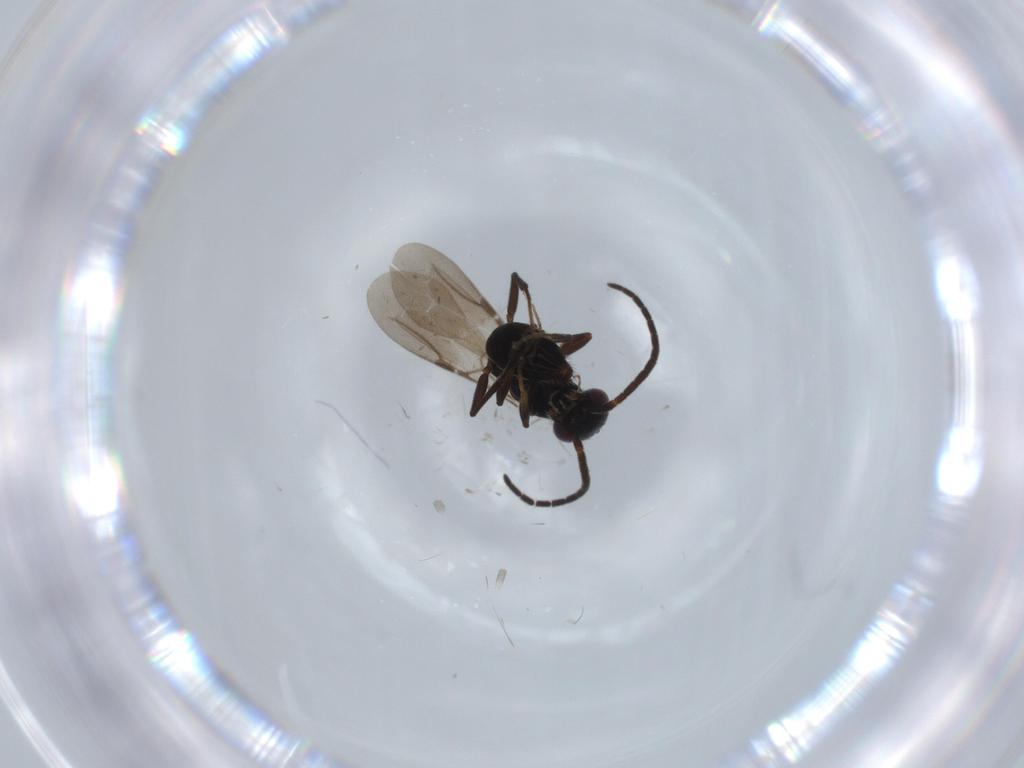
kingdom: Animalia
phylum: Arthropoda
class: Insecta
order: Hymenoptera
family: Bethylidae
